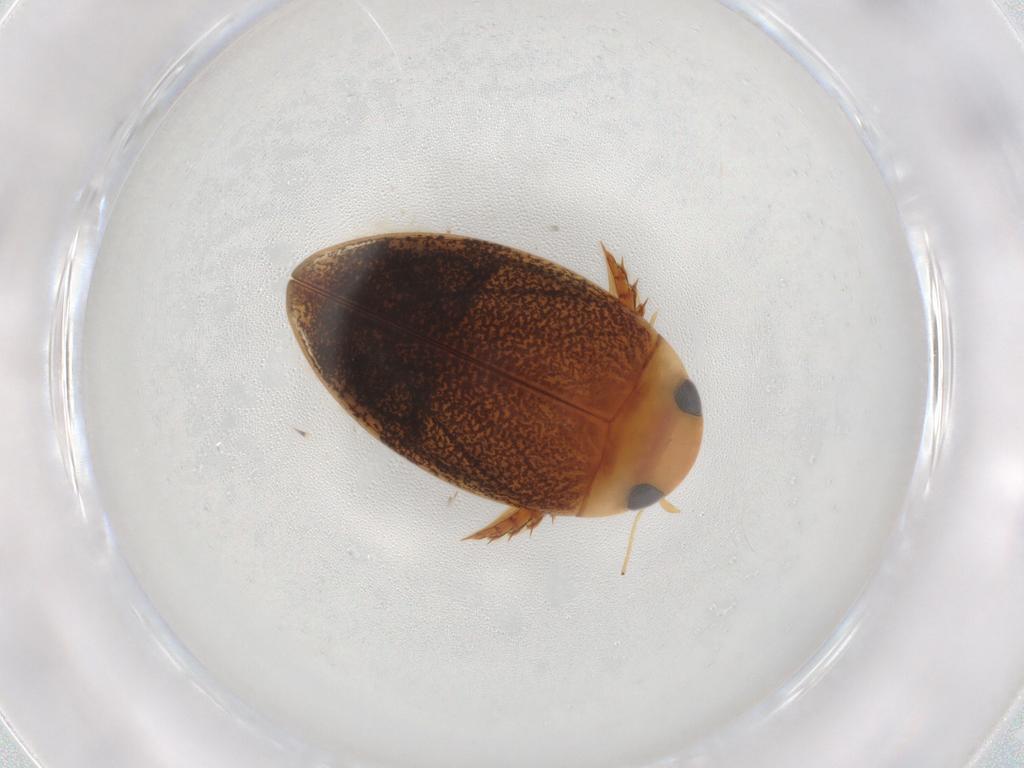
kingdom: Animalia
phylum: Arthropoda
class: Insecta
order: Coleoptera
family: Dytiscidae
